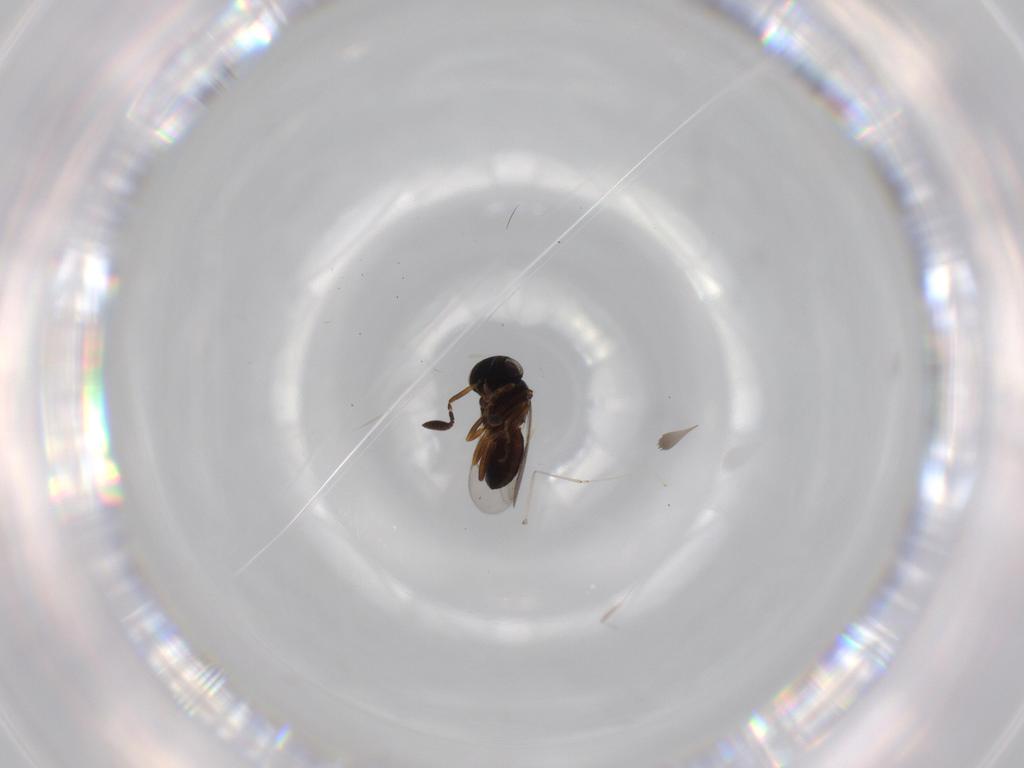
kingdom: Animalia
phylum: Arthropoda
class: Insecta
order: Coleoptera
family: Curculionidae
